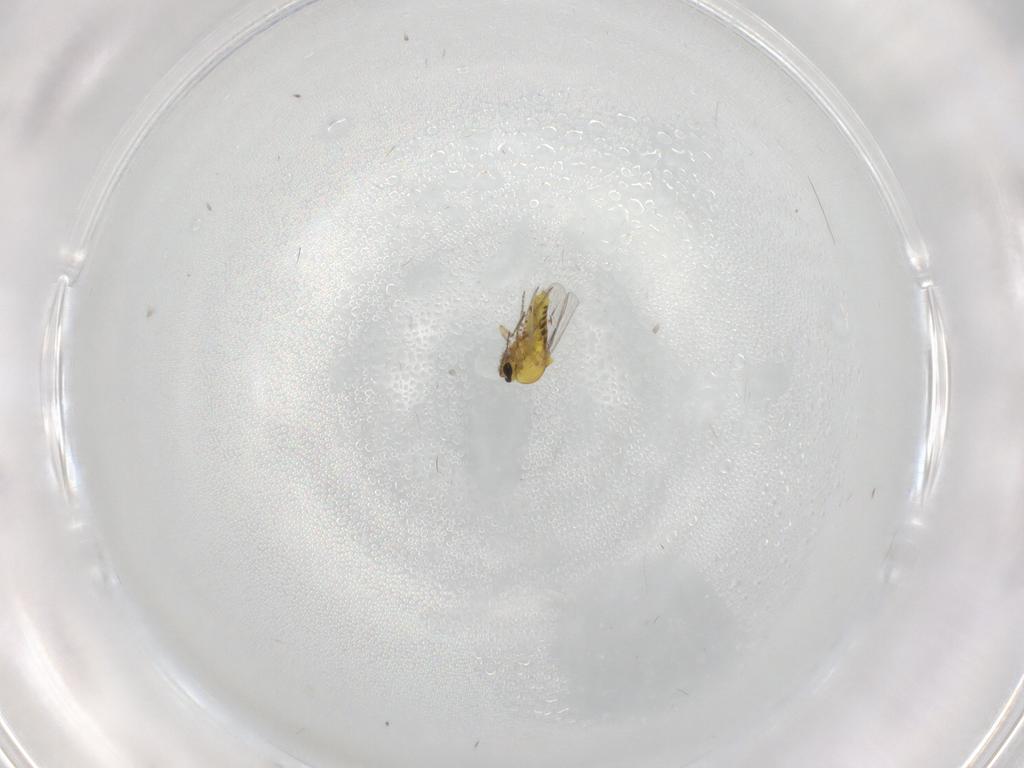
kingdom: Animalia
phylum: Arthropoda
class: Insecta
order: Diptera
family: Ceratopogonidae
